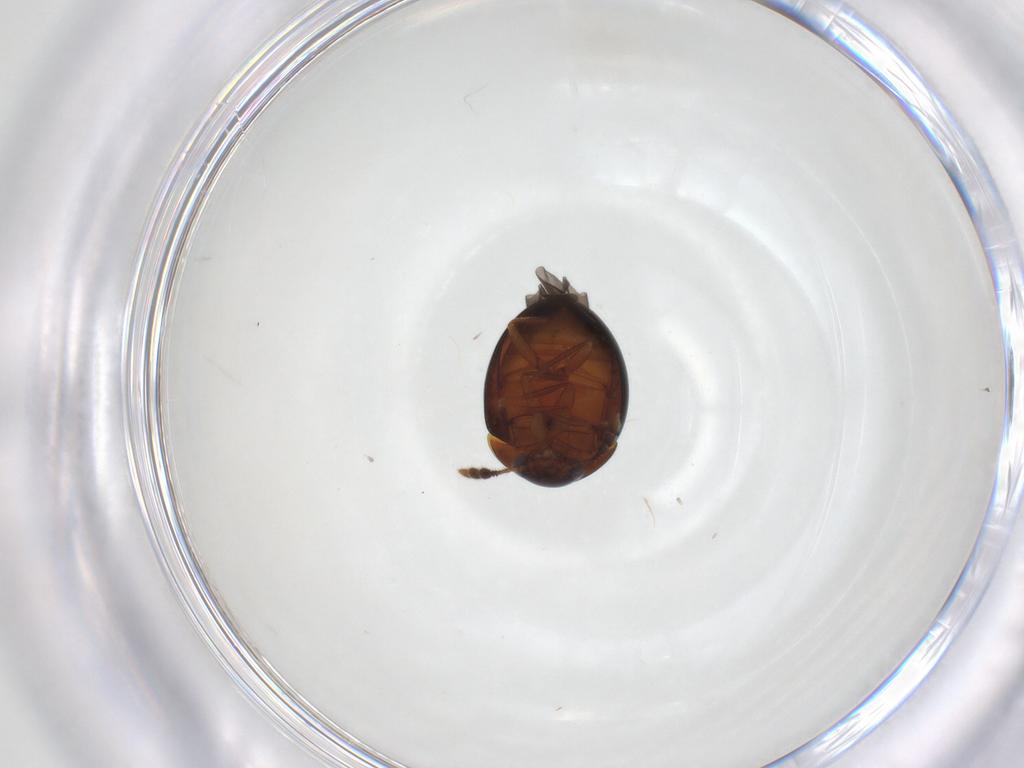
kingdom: Animalia
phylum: Arthropoda
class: Insecta
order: Coleoptera
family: Leiodidae
